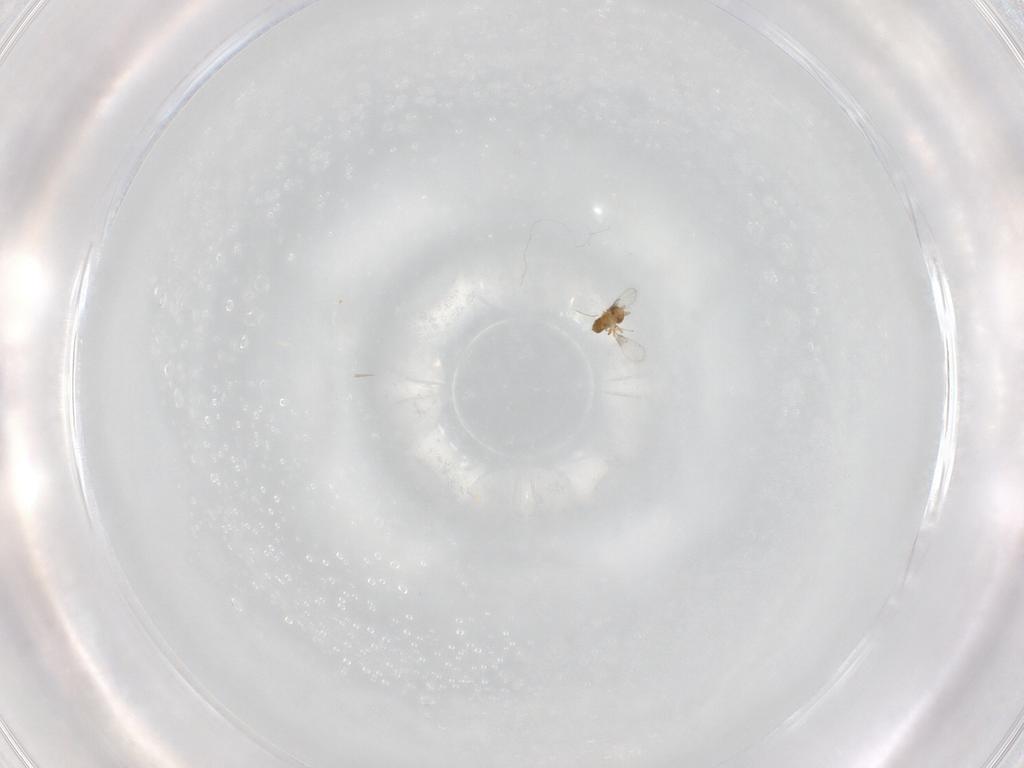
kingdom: Animalia
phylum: Arthropoda
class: Insecta
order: Hymenoptera
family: Trichogrammatidae
